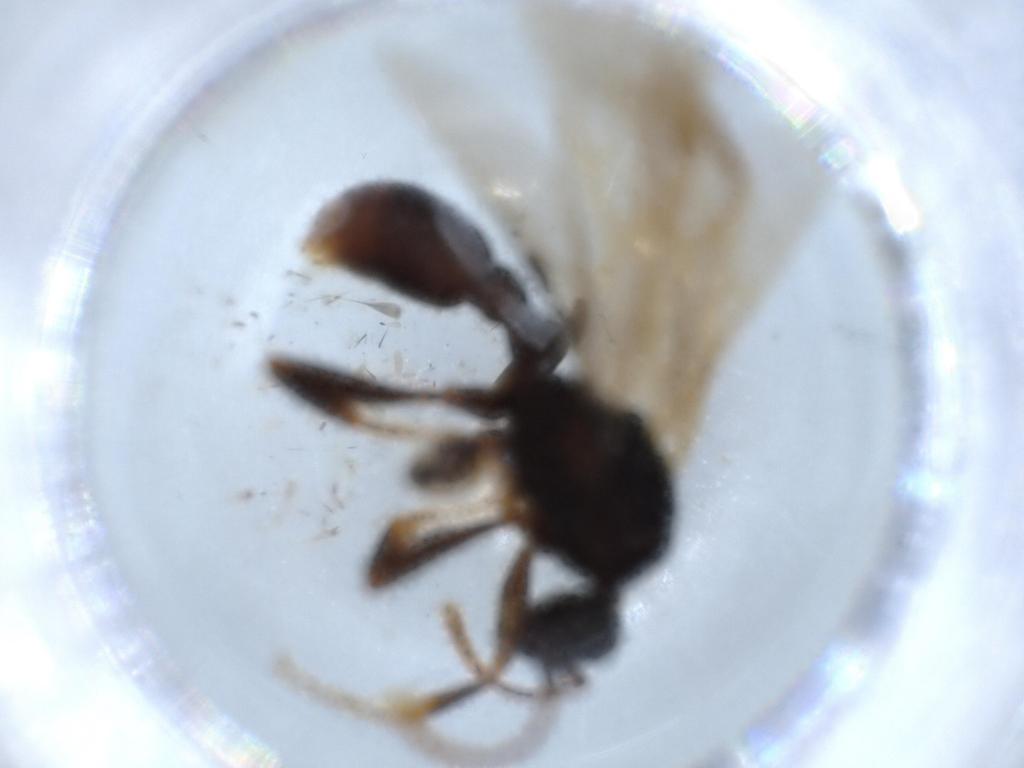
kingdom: Animalia
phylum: Arthropoda
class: Insecta
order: Hymenoptera
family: Formicidae
